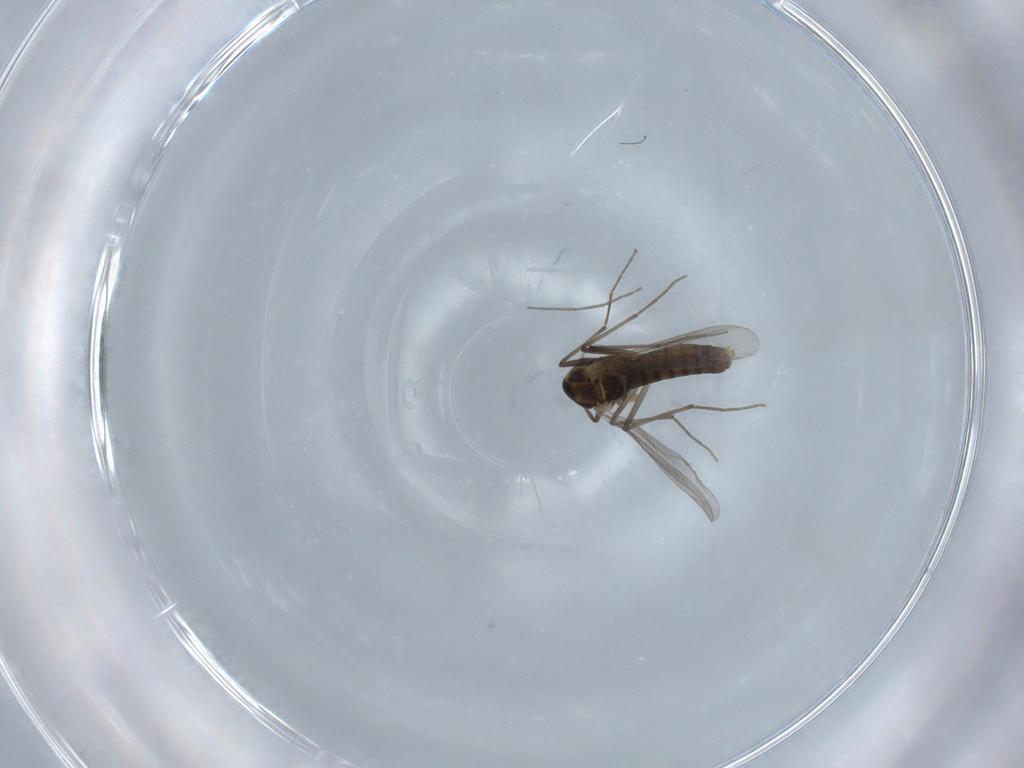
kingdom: Animalia
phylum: Arthropoda
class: Insecta
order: Diptera
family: Chironomidae
